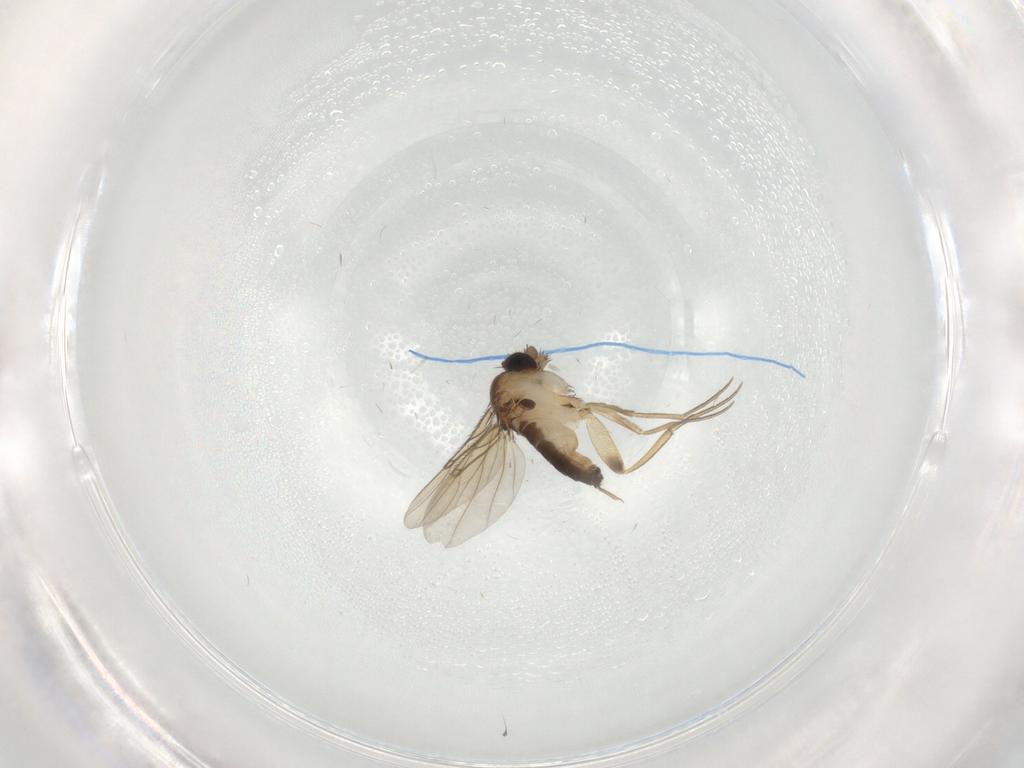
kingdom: Animalia
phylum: Arthropoda
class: Insecta
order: Diptera
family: Phoridae
